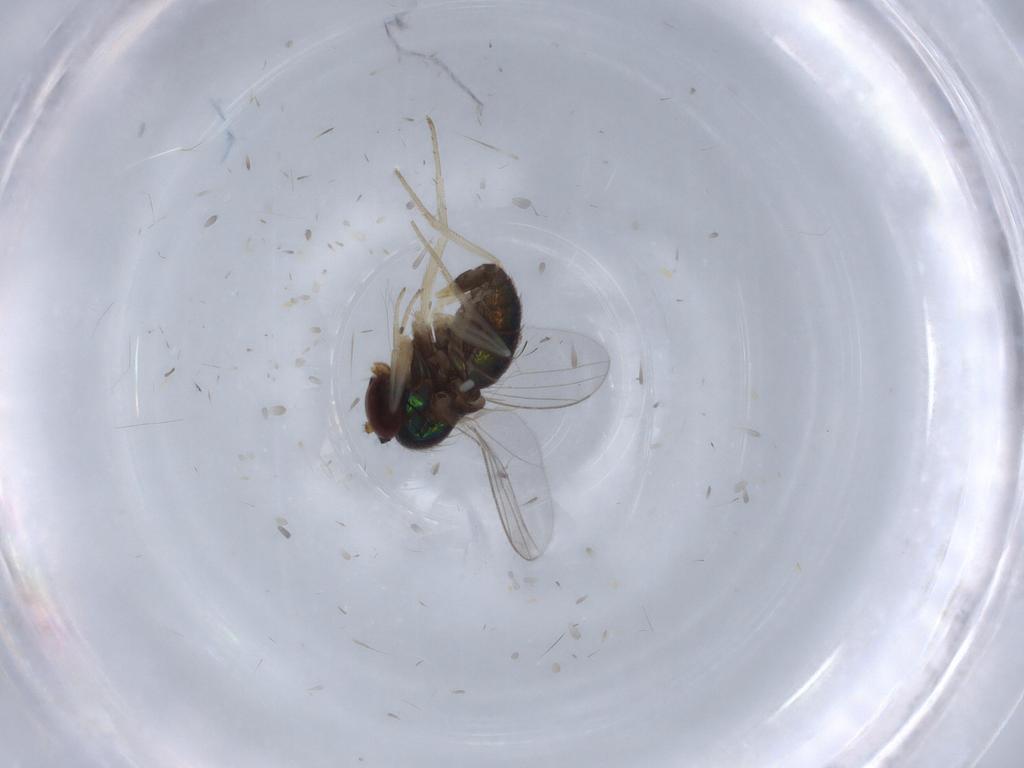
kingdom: Animalia
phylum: Arthropoda
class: Insecta
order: Diptera
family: Dolichopodidae
